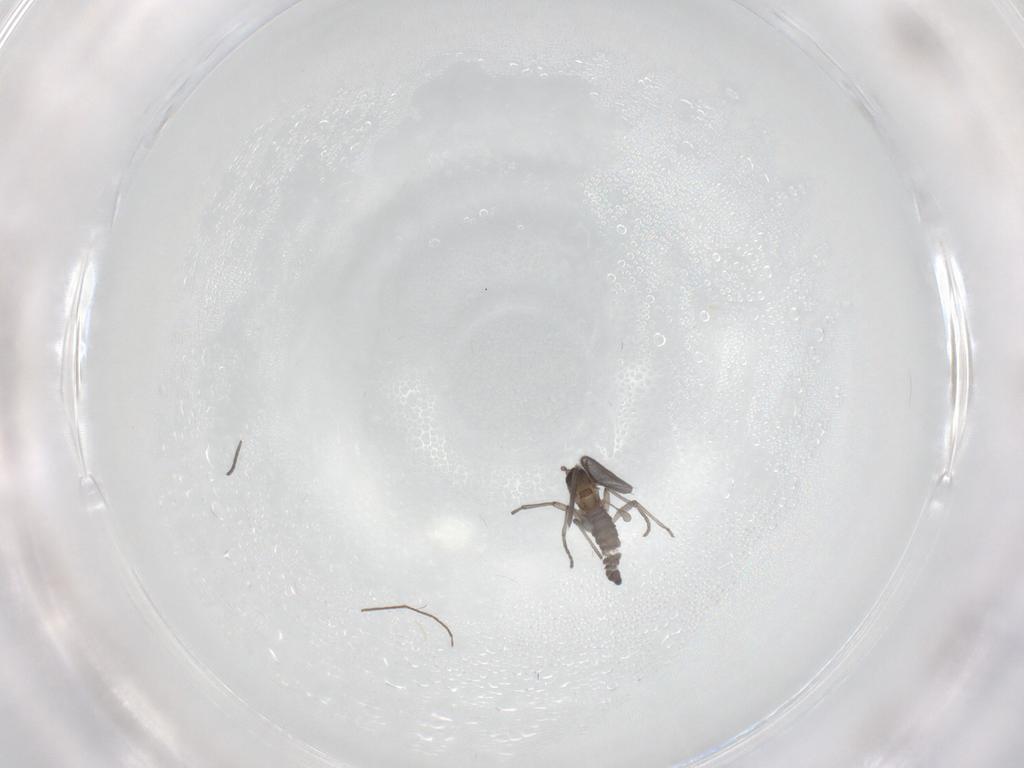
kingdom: Animalia
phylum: Arthropoda
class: Insecta
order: Diptera
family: Sciaridae
